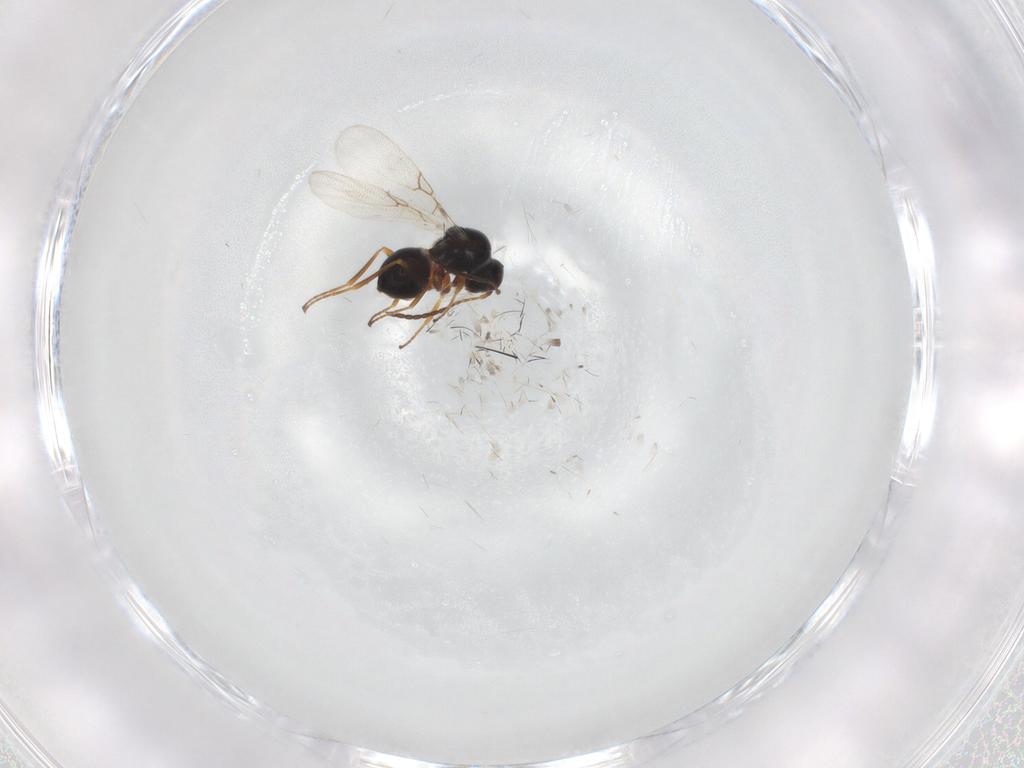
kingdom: Animalia
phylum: Arthropoda
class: Insecta
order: Hymenoptera
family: Figitidae
